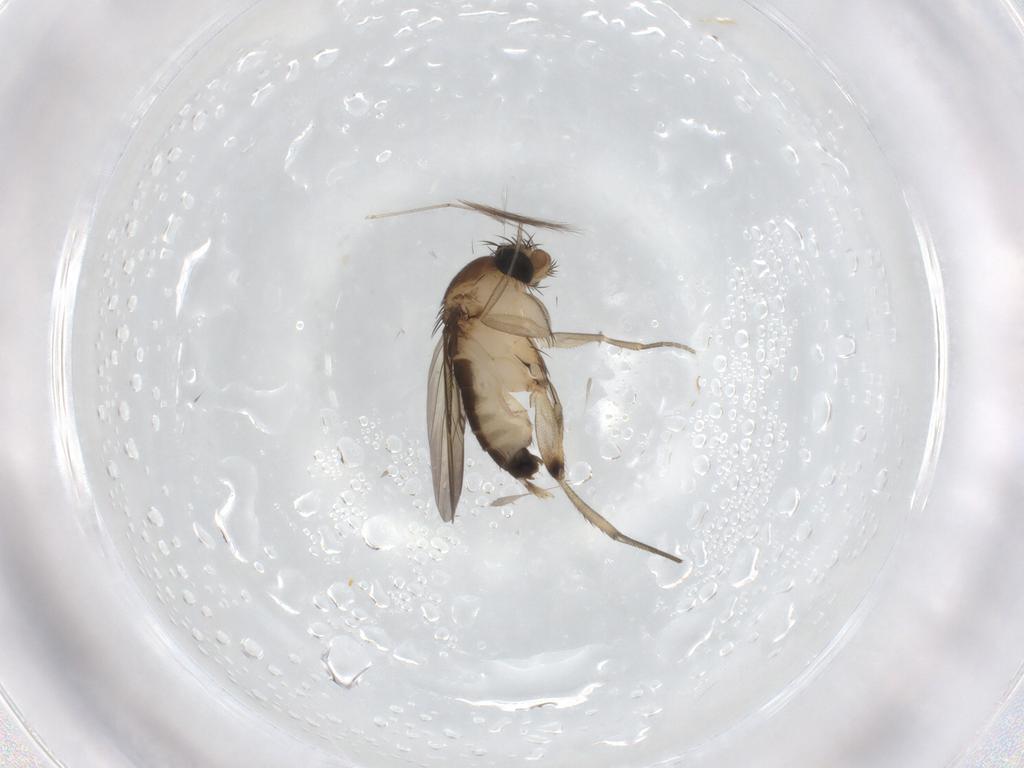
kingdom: Animalia
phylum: Arthropoda
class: Insecta
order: Diptera
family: Phoridae
